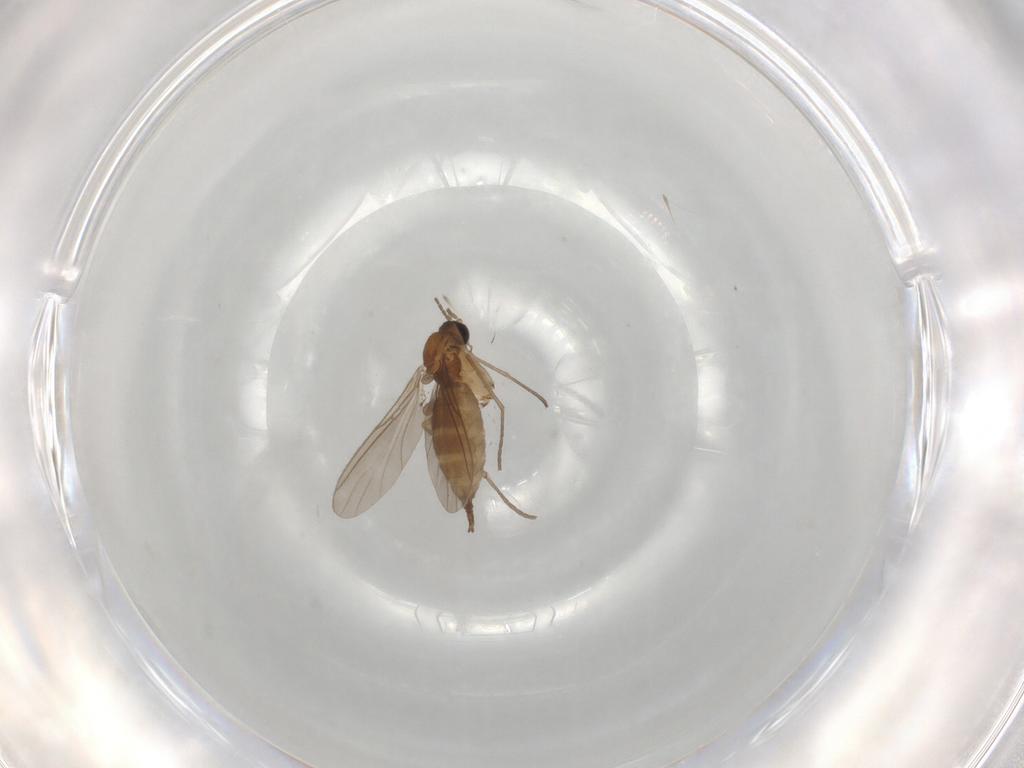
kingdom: Animalia
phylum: Arthropoda
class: Insecta
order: Diptera
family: Sciaridae
